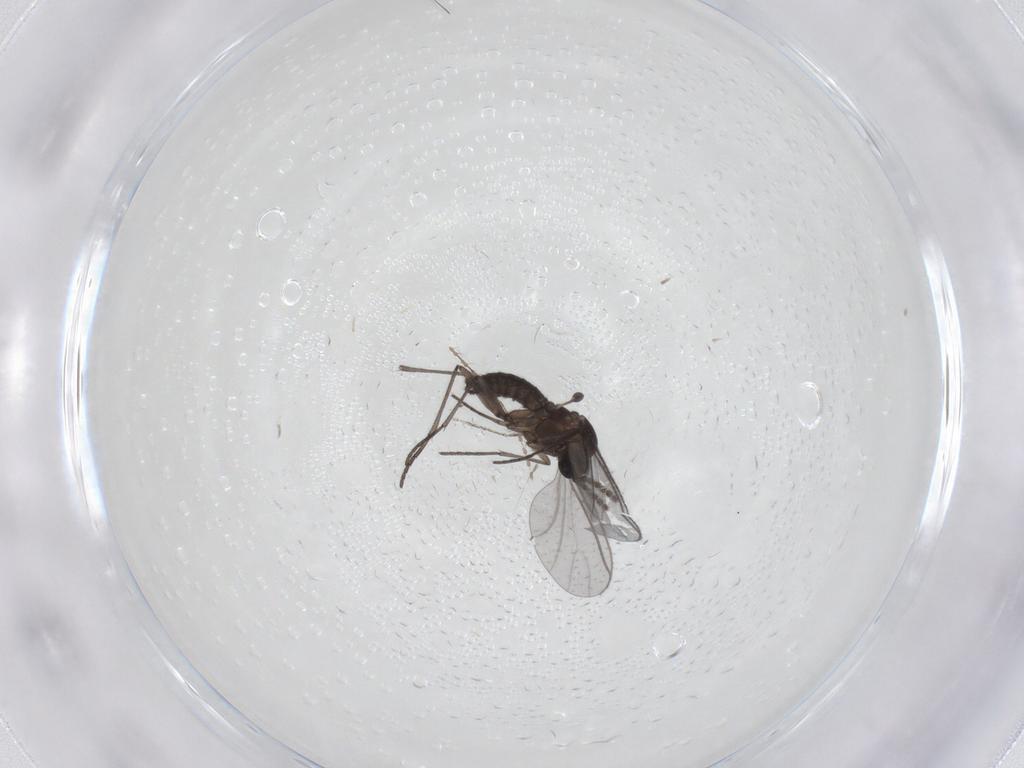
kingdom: Animalia
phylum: Arthropoda
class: Insecta
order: Diptera
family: Cecidomyiidae
